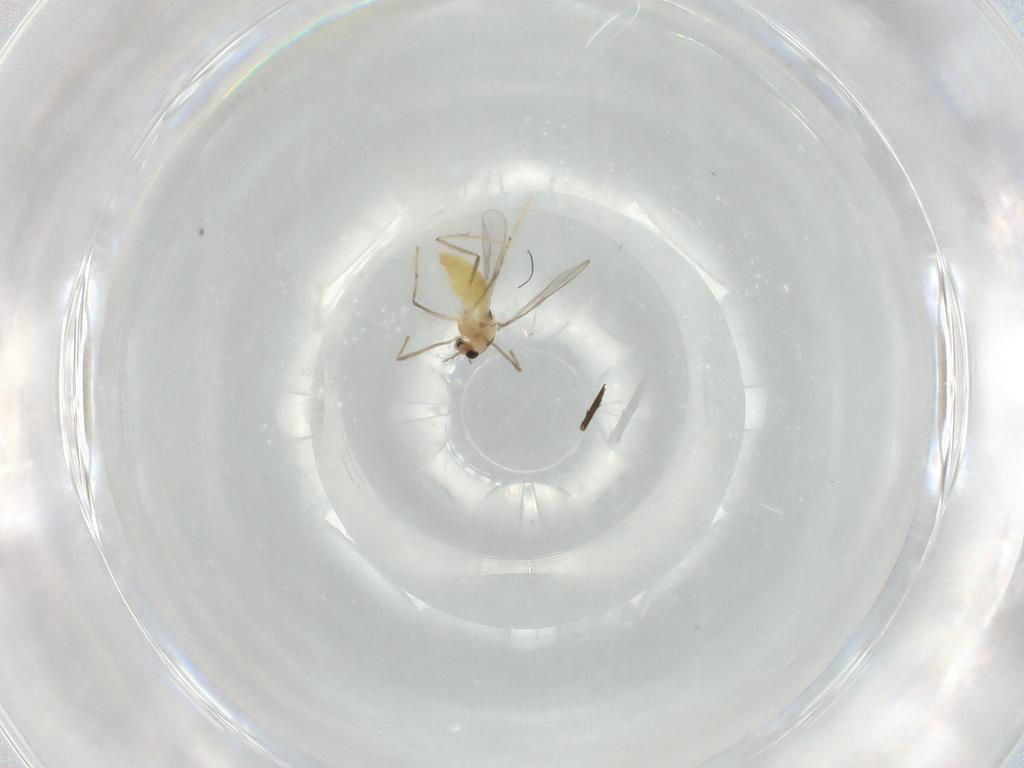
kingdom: Animalia
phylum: Arthropoda
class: Insecta
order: Diptera
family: Chironomidae
